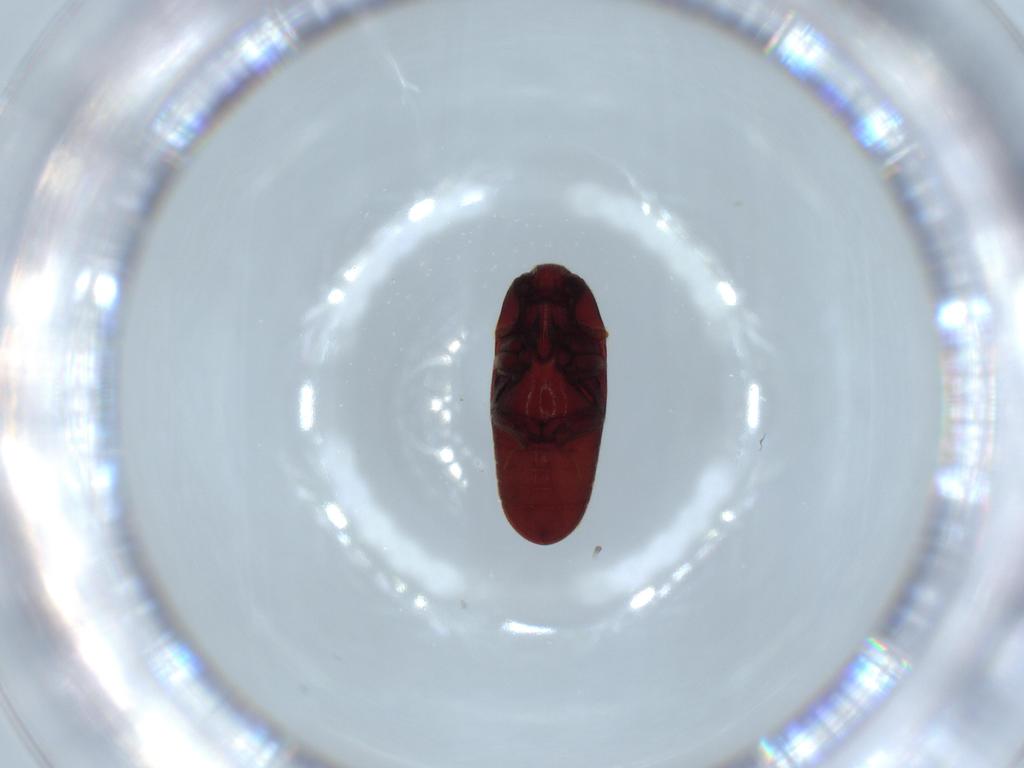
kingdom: Animalia
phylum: Arthropoda
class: Insecta
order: Coleoptera
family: Throscidae
